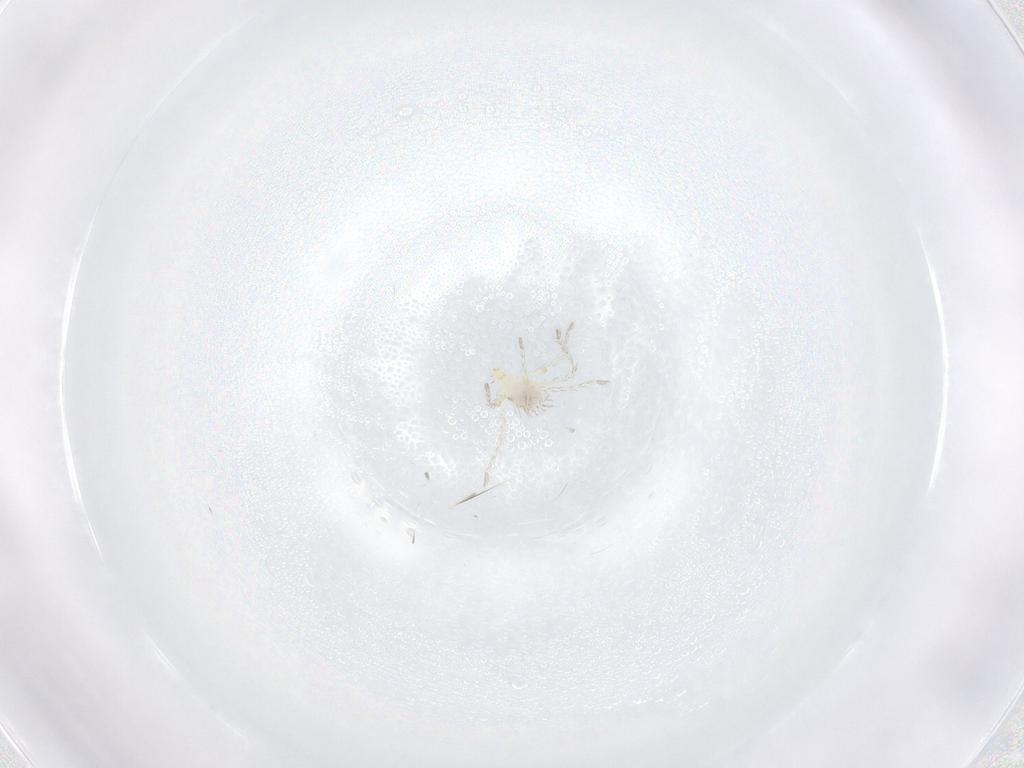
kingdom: Animalia
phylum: Arthropoda
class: Arachnida
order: Trombidiformes
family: Erythraeidae
